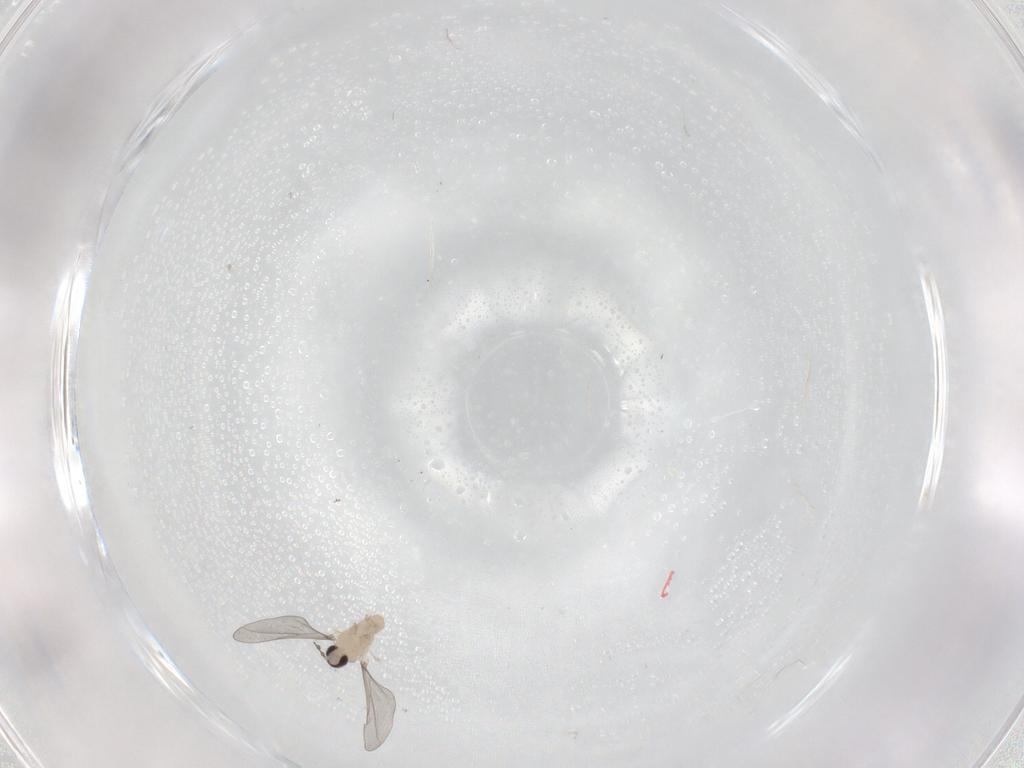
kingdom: Animalia
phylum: Arthropoda
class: Insecta
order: Diptera
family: Cecidomyiidae
